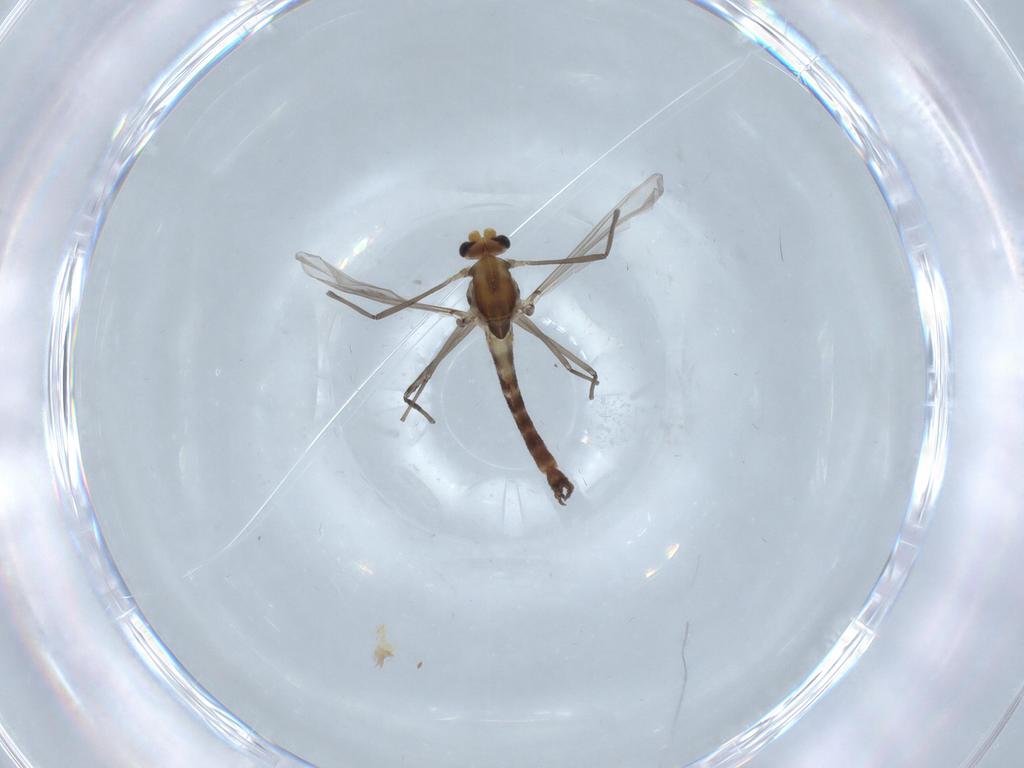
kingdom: Animalia
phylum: Arthropoda
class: Insecta
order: Diptera
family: Chironomidae
